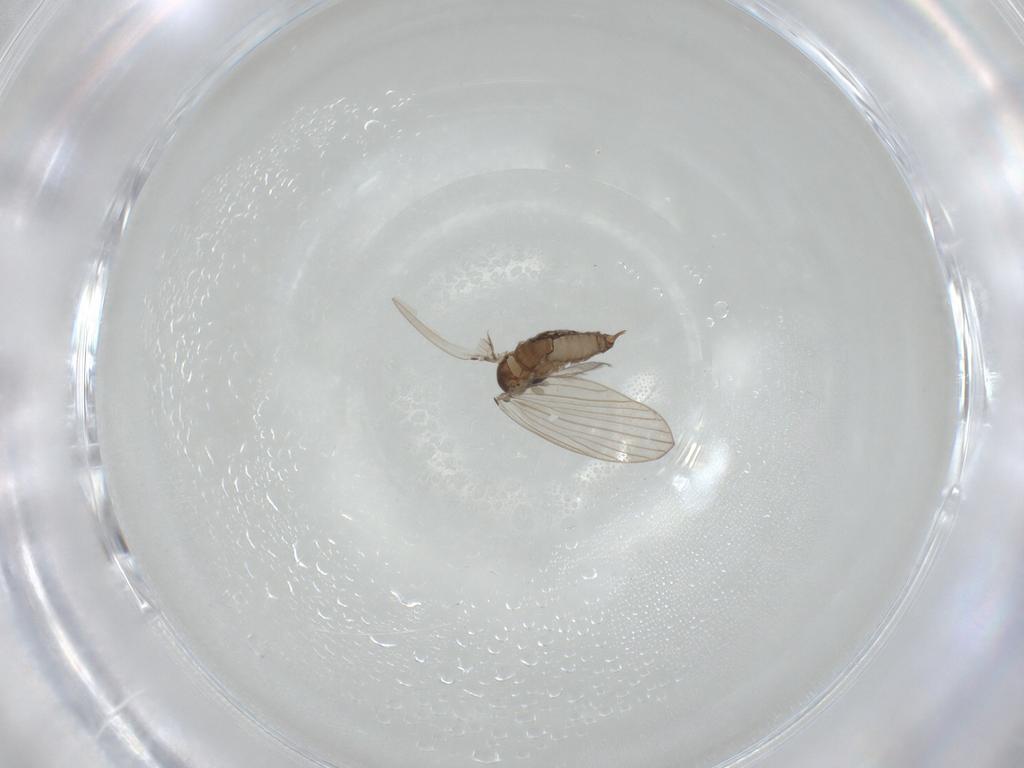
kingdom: Animalia
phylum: Arthropoda
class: Insecta
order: Diptera
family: Psychodidae
